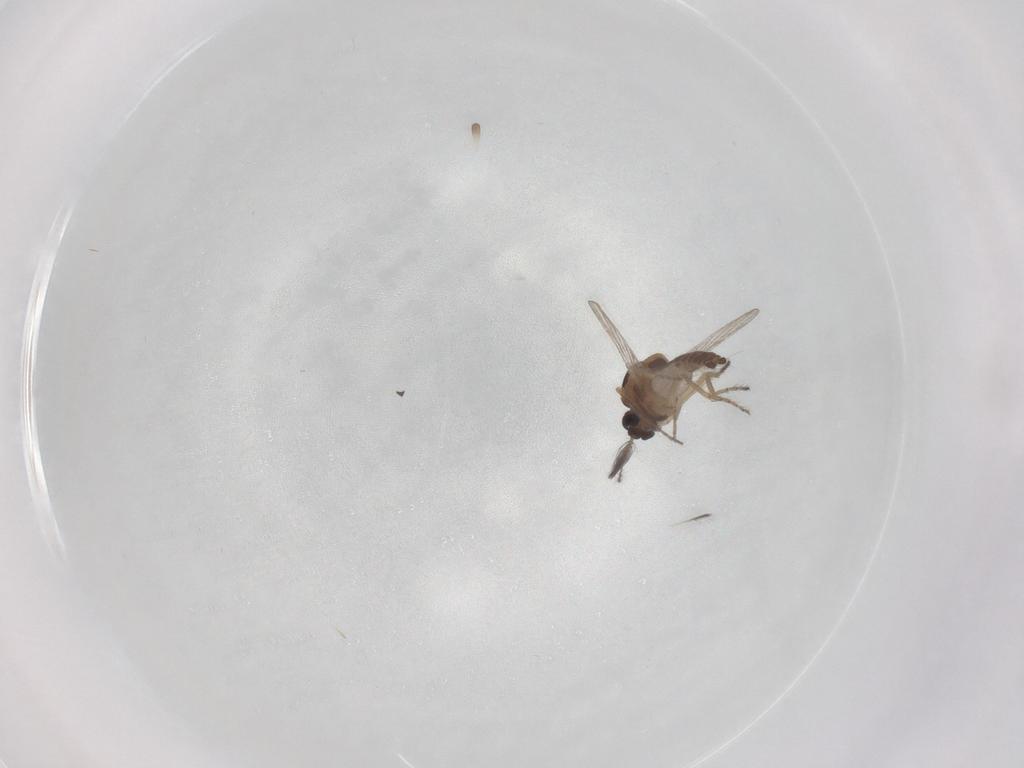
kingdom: Animalia
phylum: Arthropoda
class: Insecta
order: Diptera
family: Ceratopogonidae
